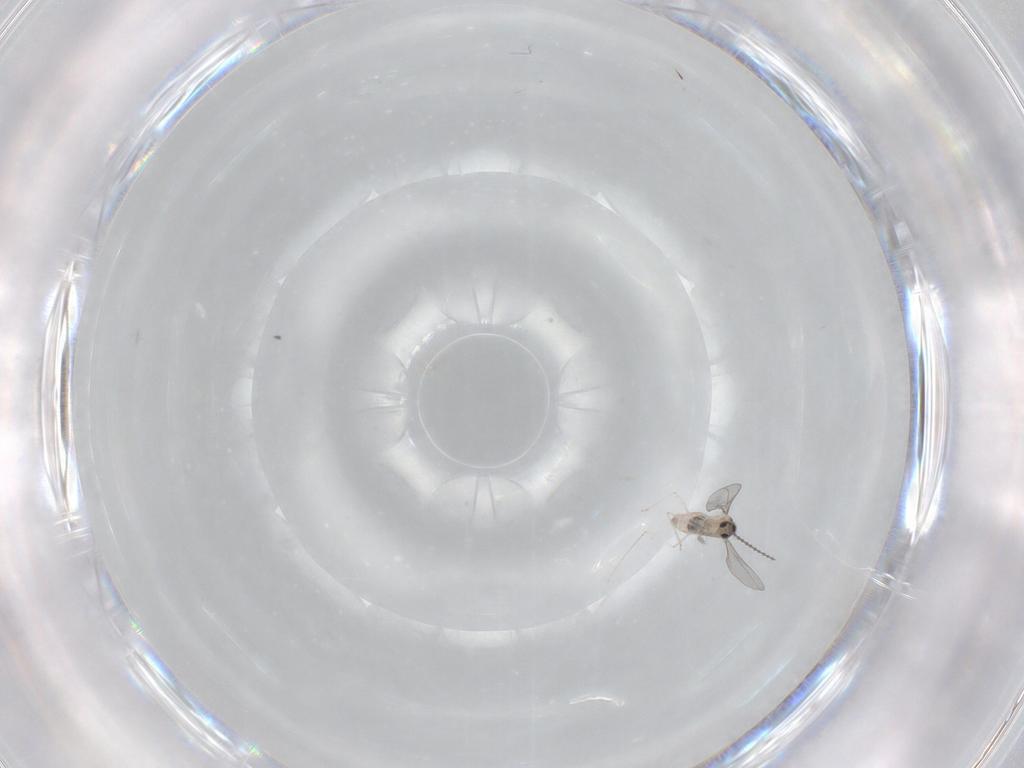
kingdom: Animalia
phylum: Arthropoda
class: Insecta
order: Diptera
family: Cecidomyiidae
